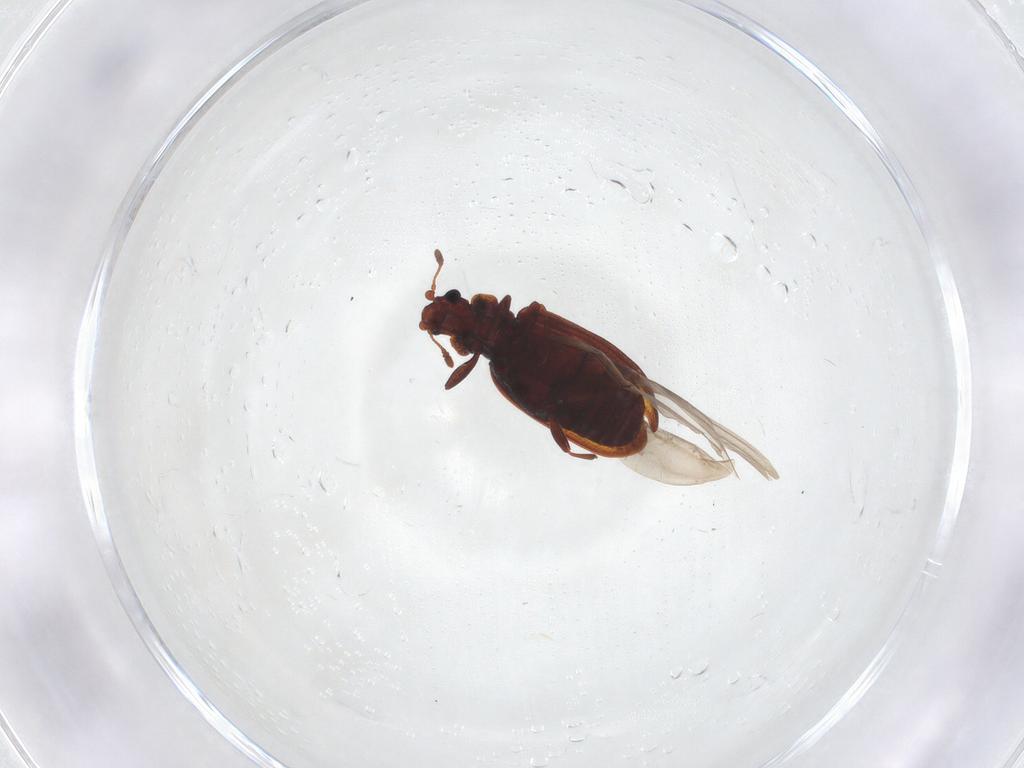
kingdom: Animalia
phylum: Arthropoda
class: Insecta
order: Coleoptera
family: Latridiidae
